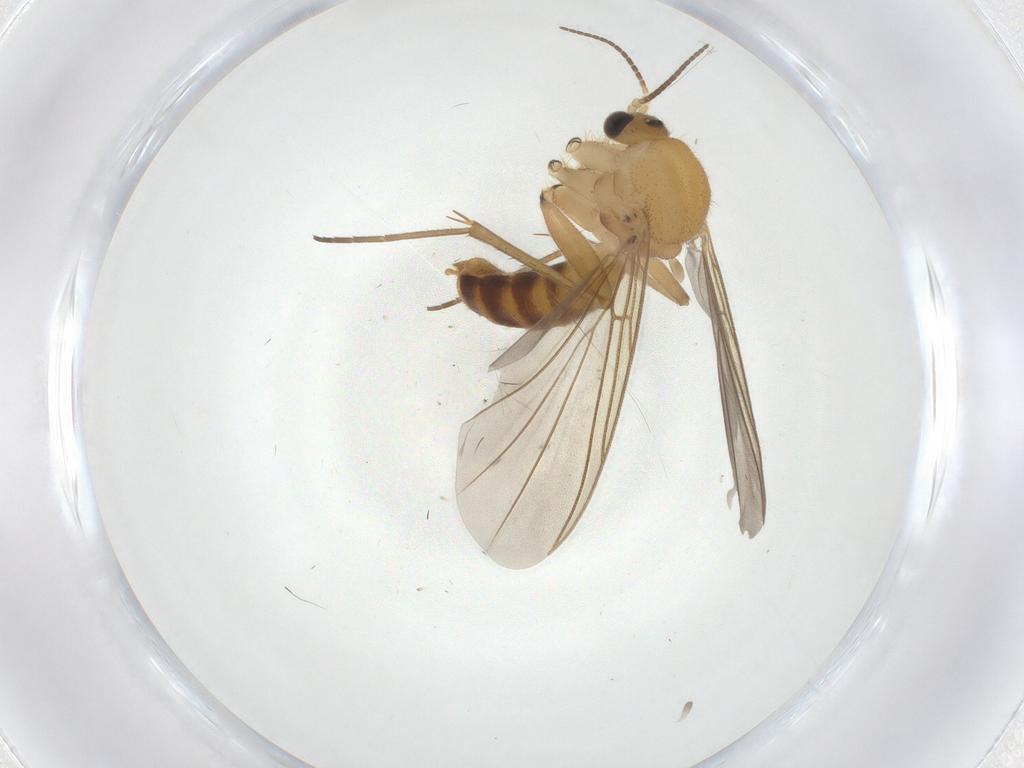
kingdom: Animalia
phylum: Arthropoda
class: Insecta
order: Diptera
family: Mycetophilidae
